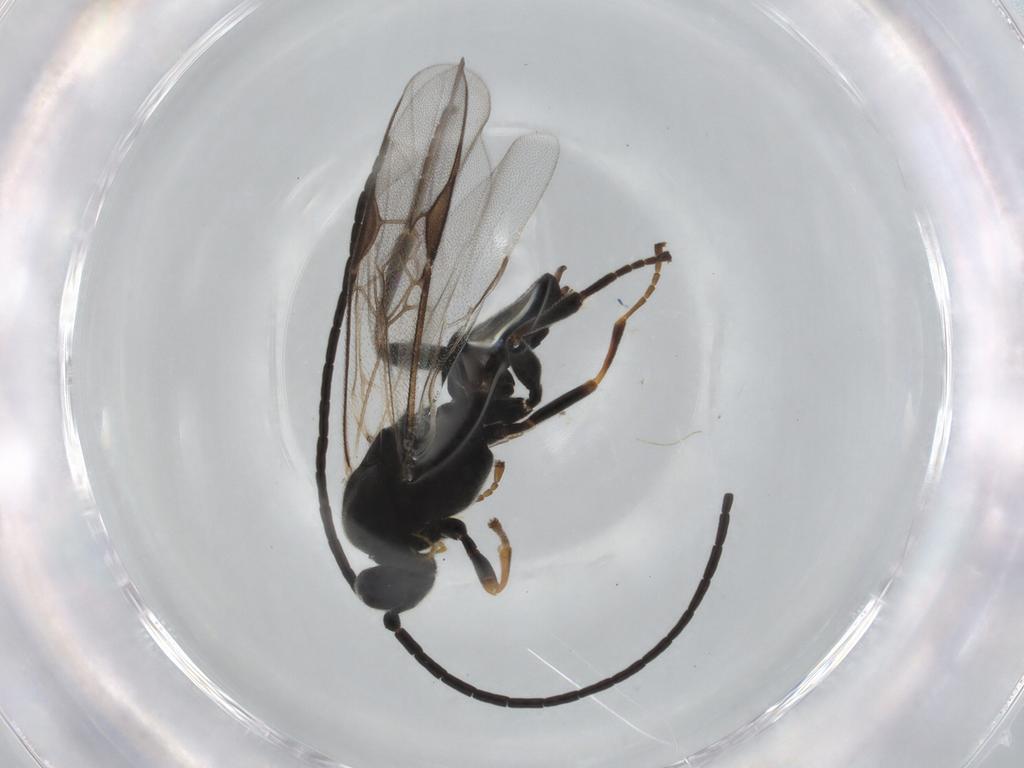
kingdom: Animalia
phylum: Arthropoda
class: Insecta
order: Hymenoptera
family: Braconidae
